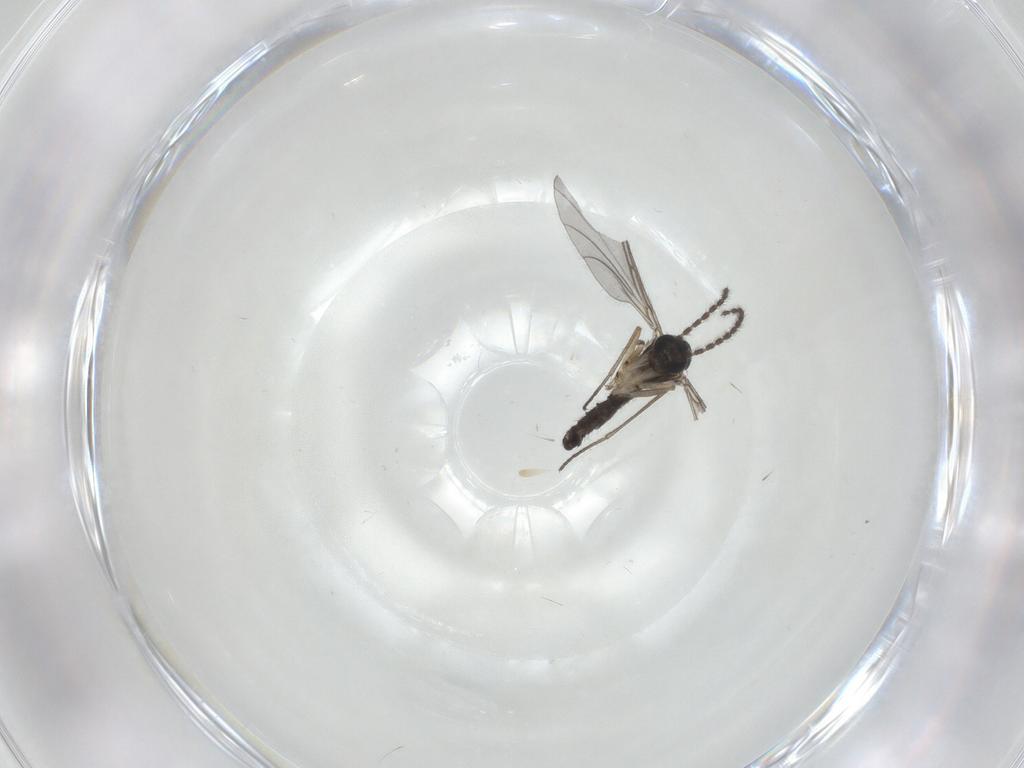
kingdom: Animalia
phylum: Arthropoda
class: Insecta
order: Diptera
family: Sciaridae
